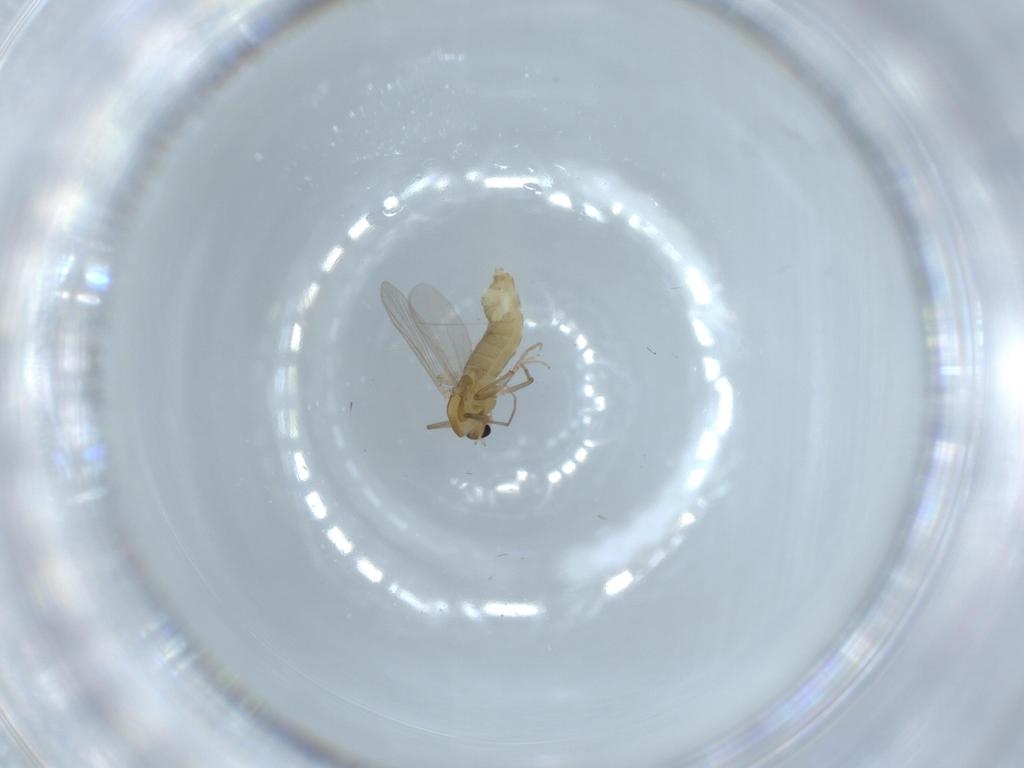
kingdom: Animalia
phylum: Arthropoda
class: Insecta
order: Diptera
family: Chironomidae
